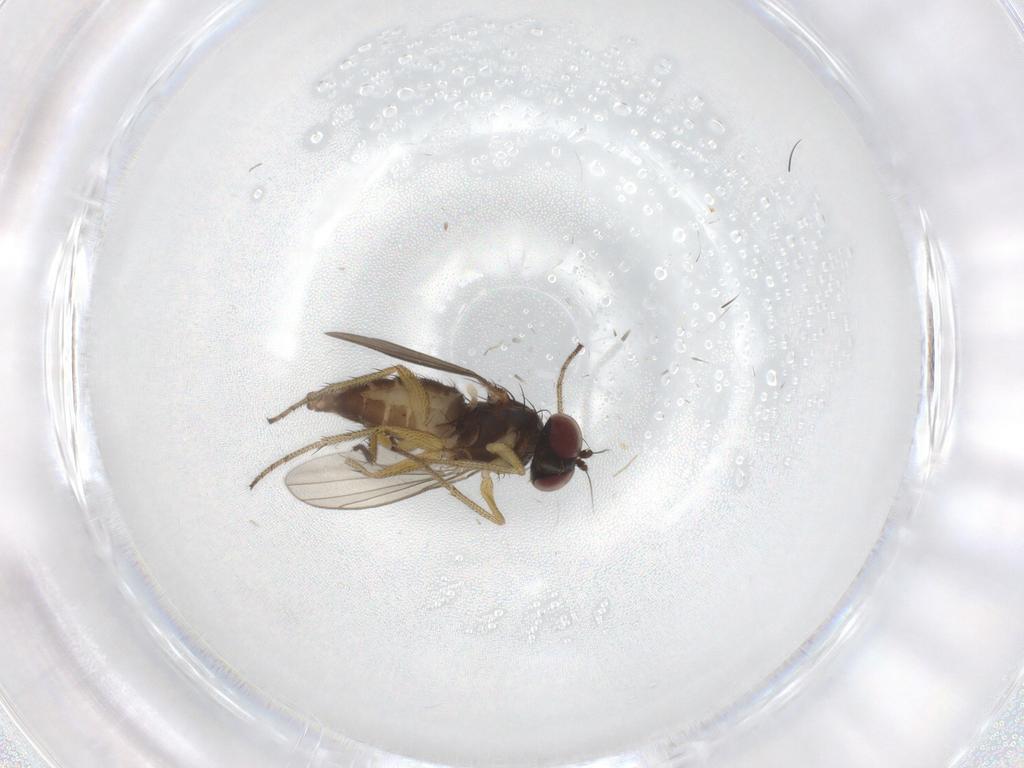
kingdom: Animalia
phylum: Arthropoda
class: Insecta
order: Diptera
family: Dolichopodidae
